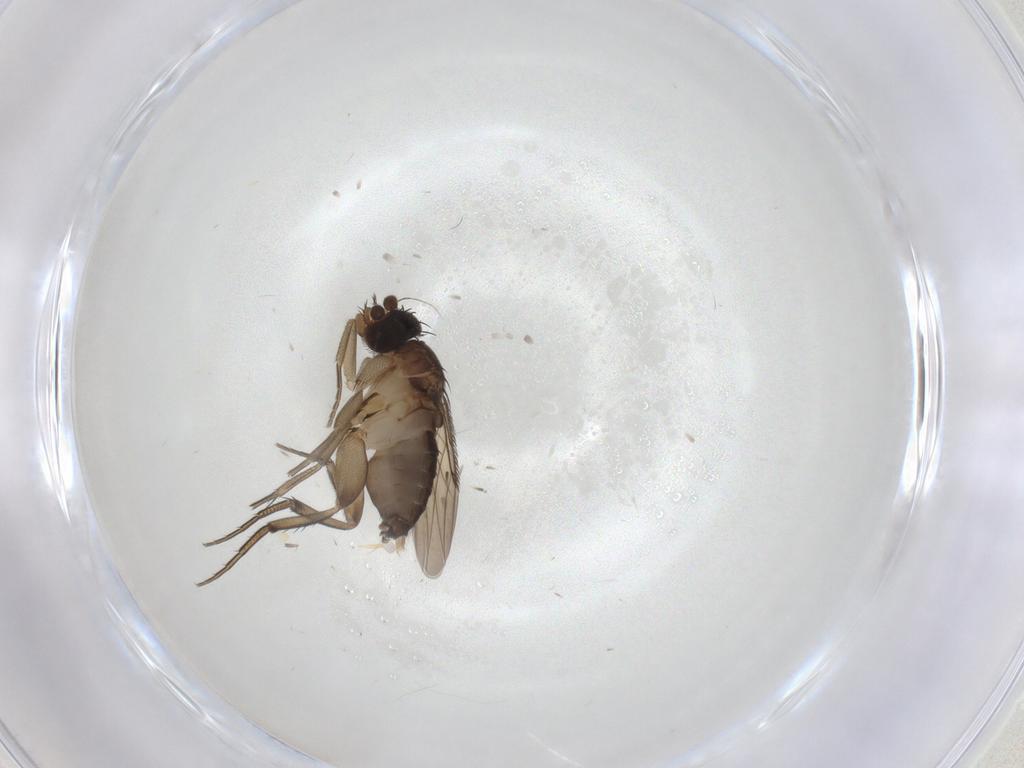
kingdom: Animalia
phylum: Arthropoda
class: Insecta
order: Diptera
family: Phoridae
